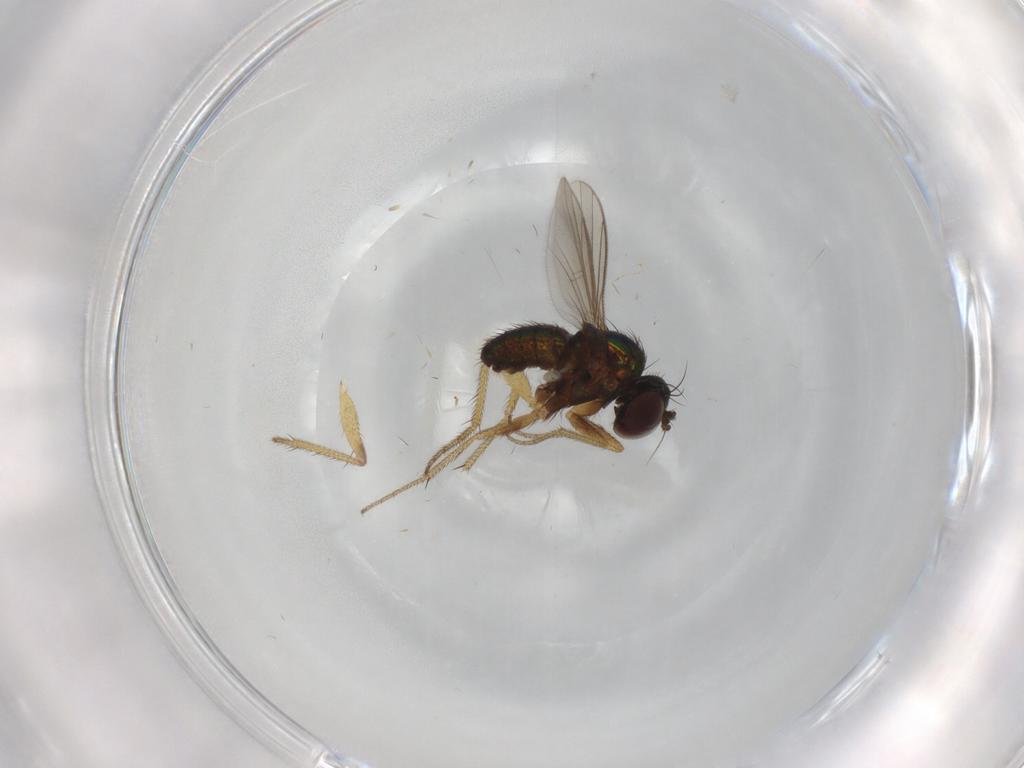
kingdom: Animalia
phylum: Arthropoda
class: Insecta
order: Diptera
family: Dolichopodidae
